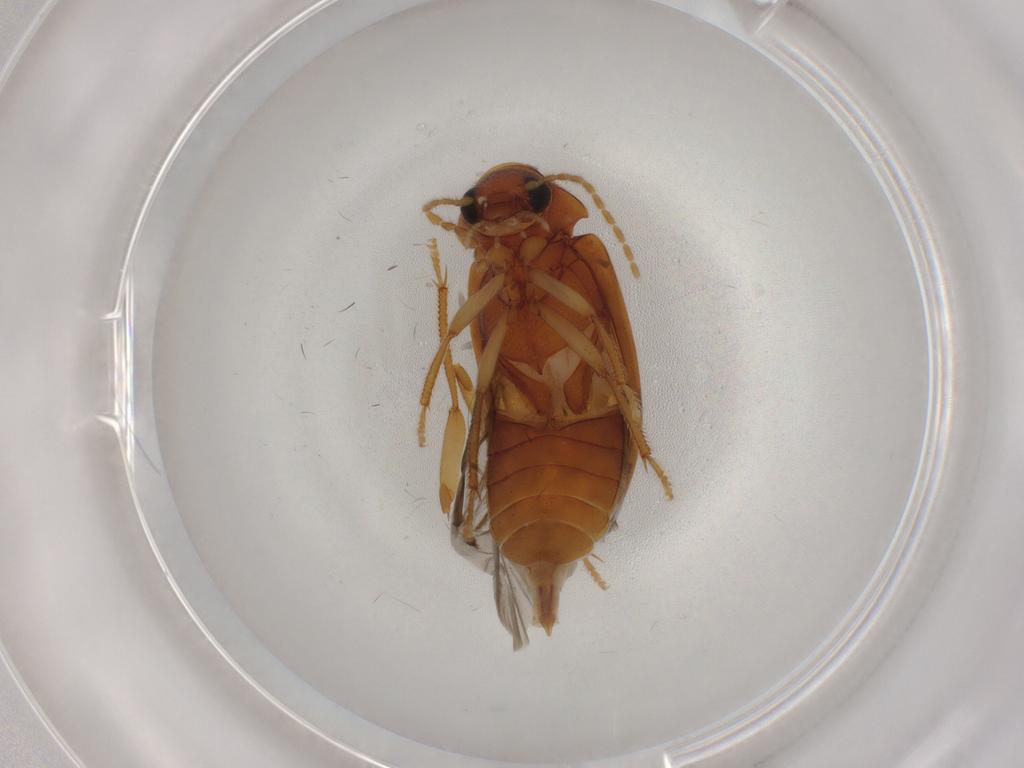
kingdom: Animalia
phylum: Arthropoda
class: Insecta
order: Coleoptera
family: Ptilodactylidae
